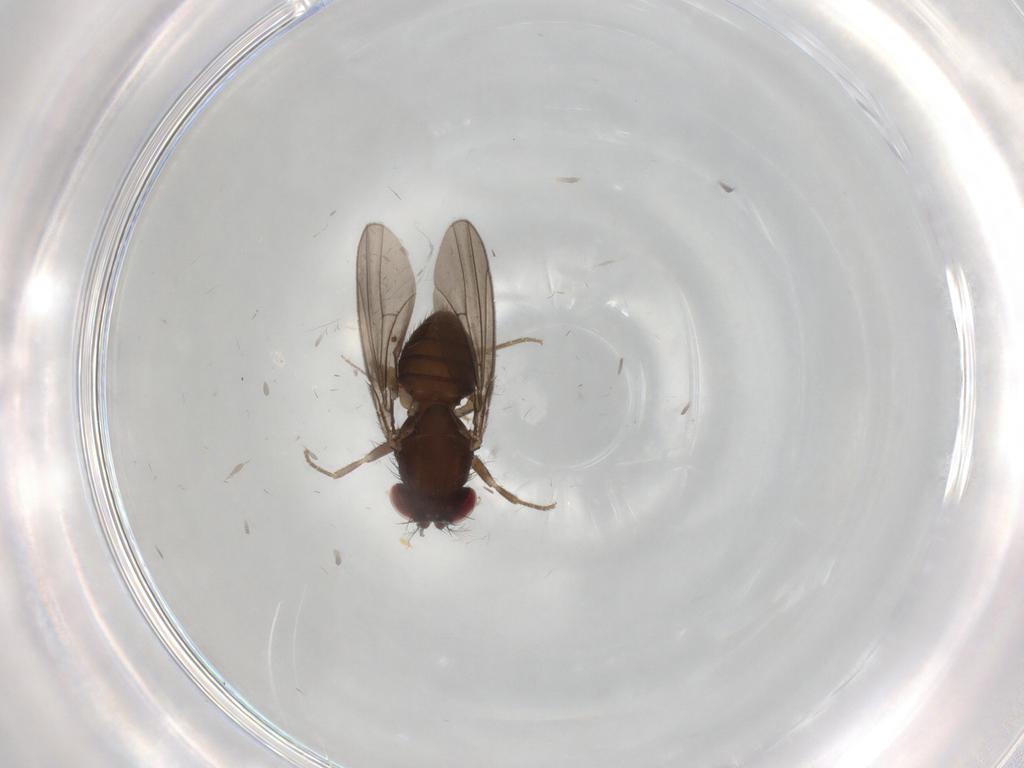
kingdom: Animalia
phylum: Arthropoda
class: Insecta
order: Diptera
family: Drosophilidae
